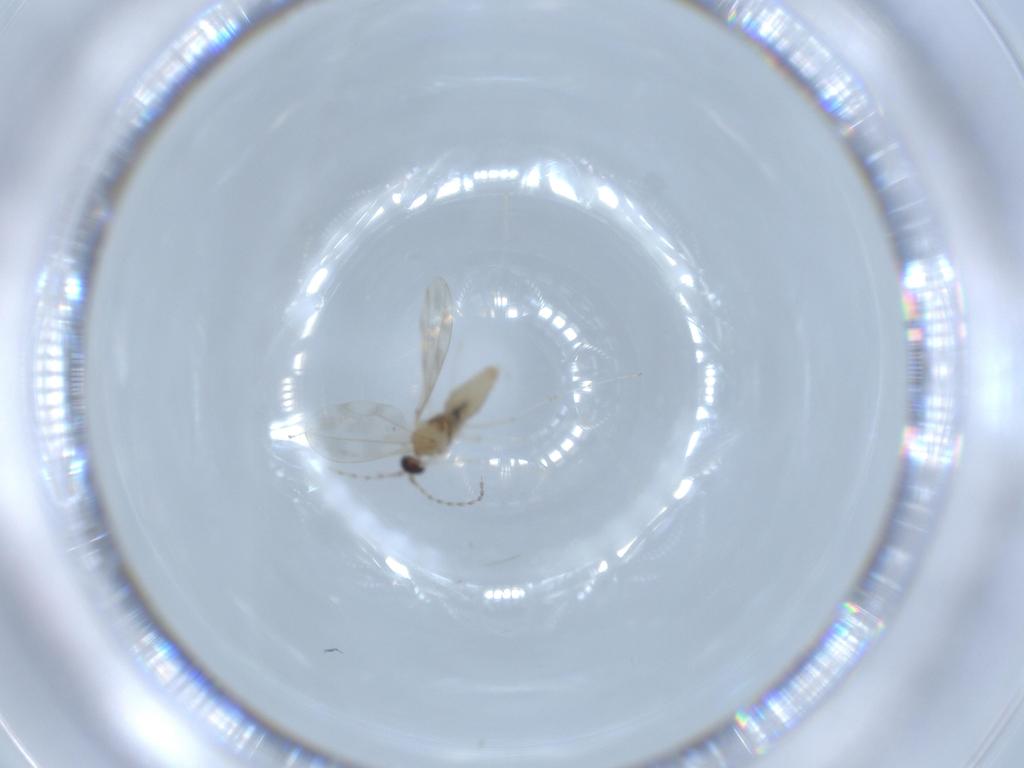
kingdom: Animalia
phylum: Arthropoda
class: Insecta
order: Diptera
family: Cecidomyiidae
